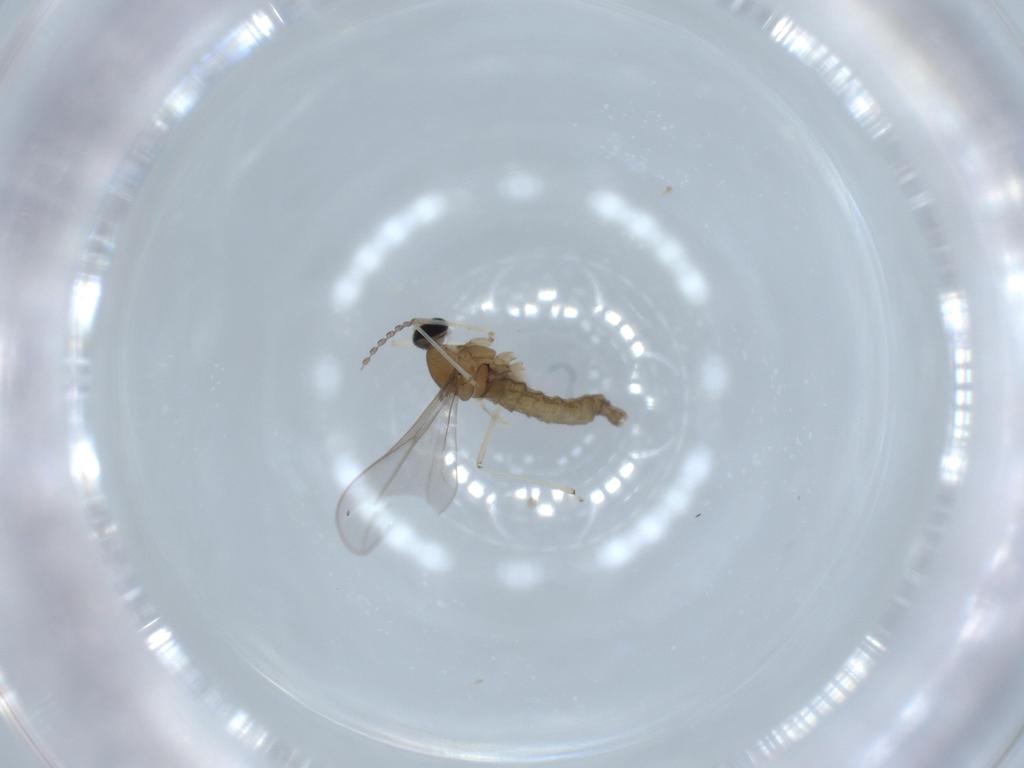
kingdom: Animalia
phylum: Arthropoda
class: Insecta
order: Diptera
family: Cecidomyiidae
